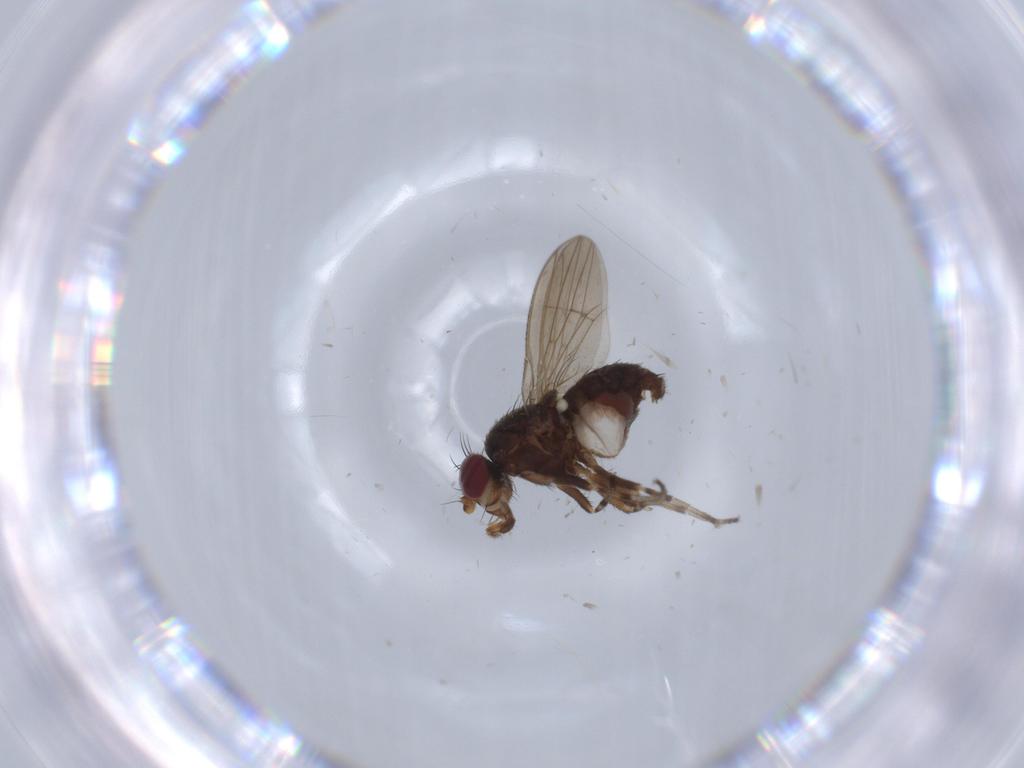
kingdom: Animalia
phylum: Arthropoda
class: Insecta
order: Diptera
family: Heleomyzidae
